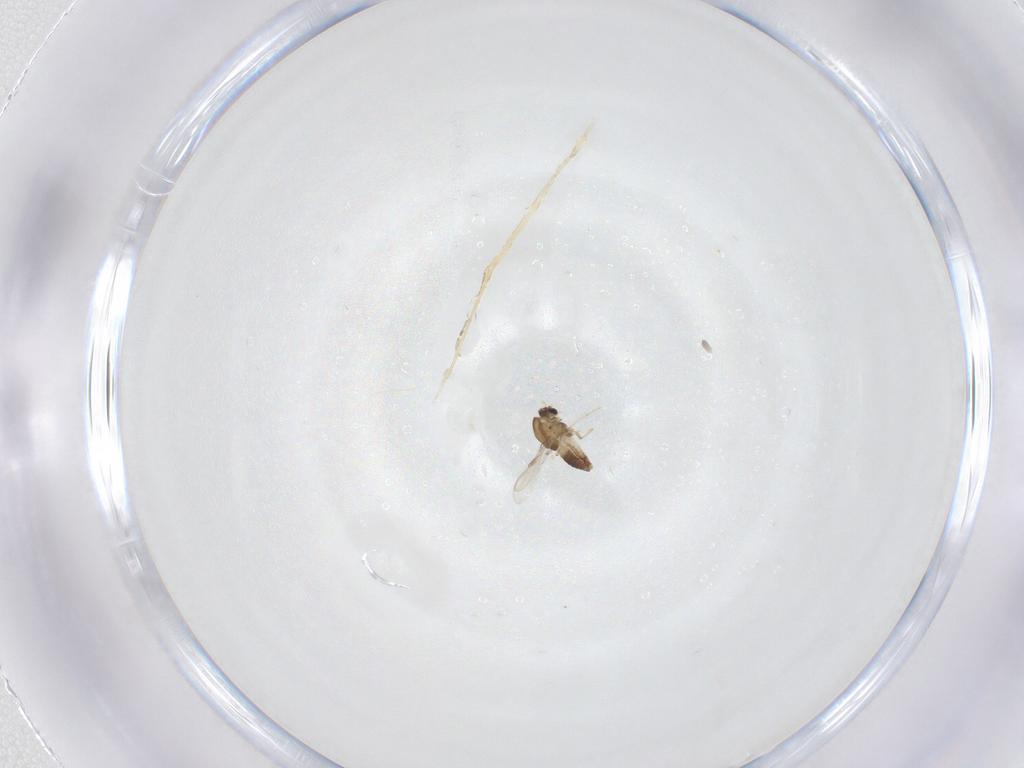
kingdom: Animalia
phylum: Arthropoda
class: Insecta
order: Diptera
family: Chironomidae
